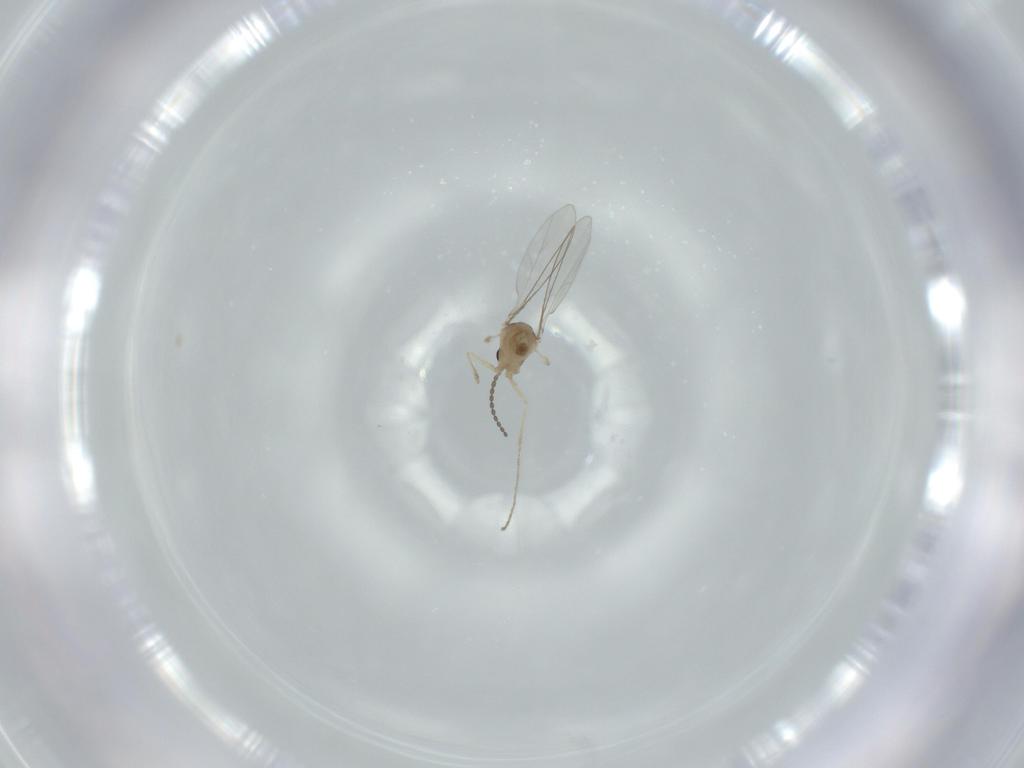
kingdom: Animalia
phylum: Arthropoda
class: Insecta
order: Diptera
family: Cecidomyiidae
